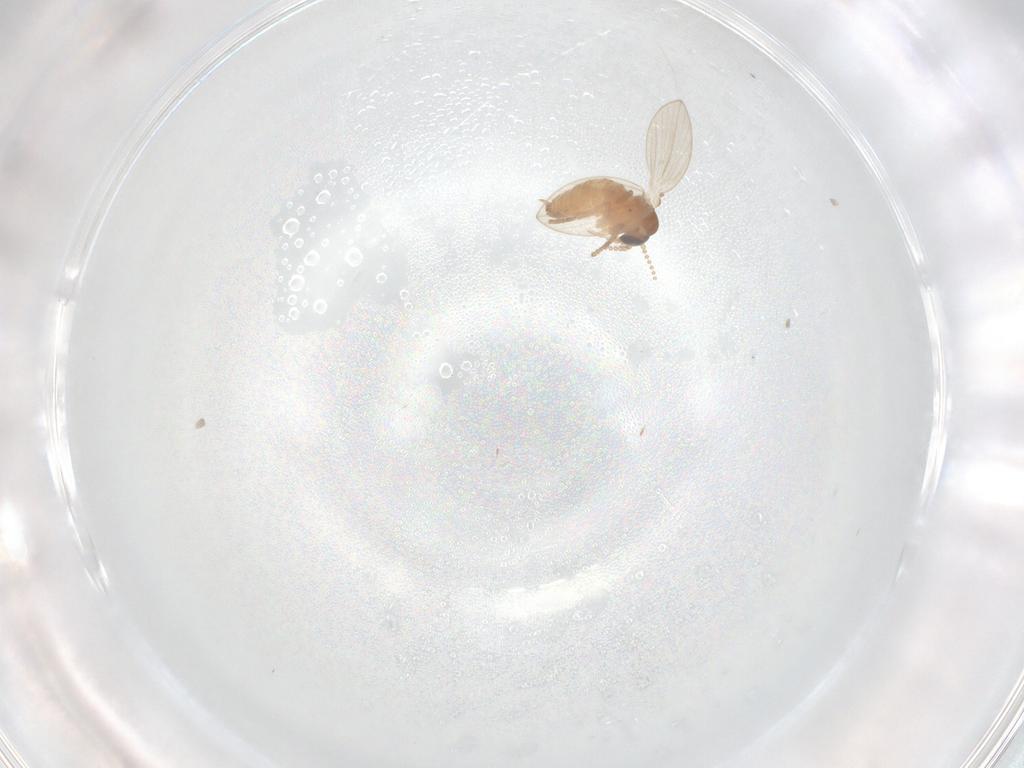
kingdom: Animalia
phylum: Arthropoda
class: Insecta
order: Diptera
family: Psychodidae
